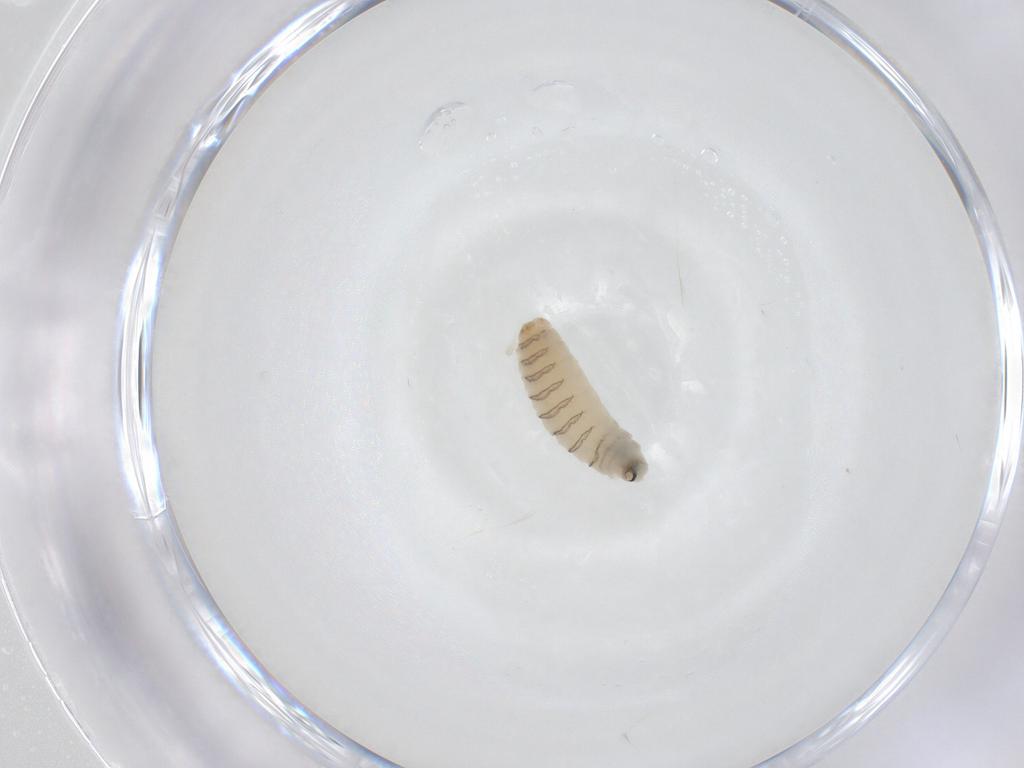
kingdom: Animalia
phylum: Arthropoda
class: Insecta
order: Diptera
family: Sarcophagidae
